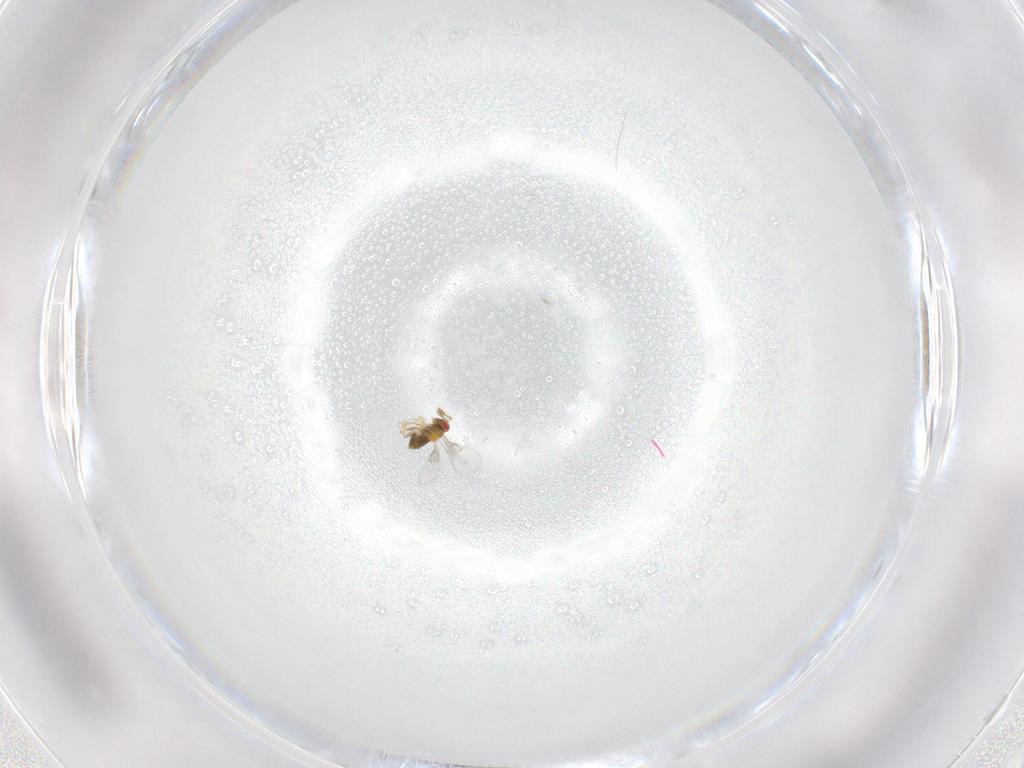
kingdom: Animalia
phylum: Arthropoda
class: Insecta
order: Hymenoptera
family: Trichogrammatidae
